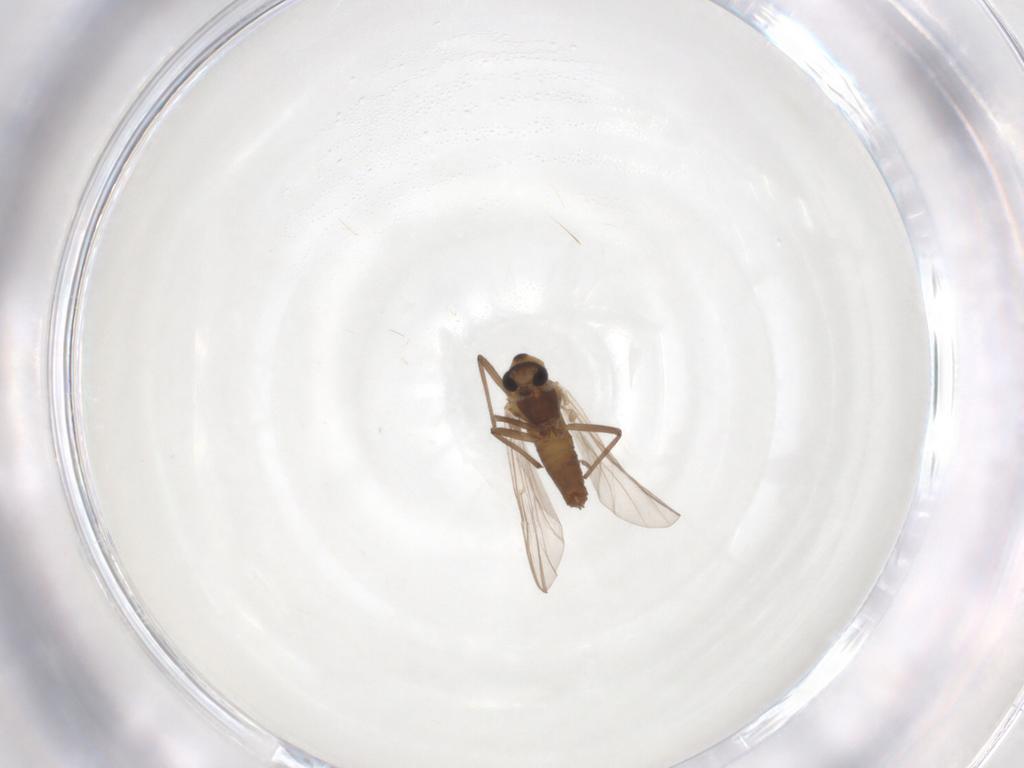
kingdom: Animalia
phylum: Arthropoda
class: Insecta
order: Diptera
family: Chironomidae
